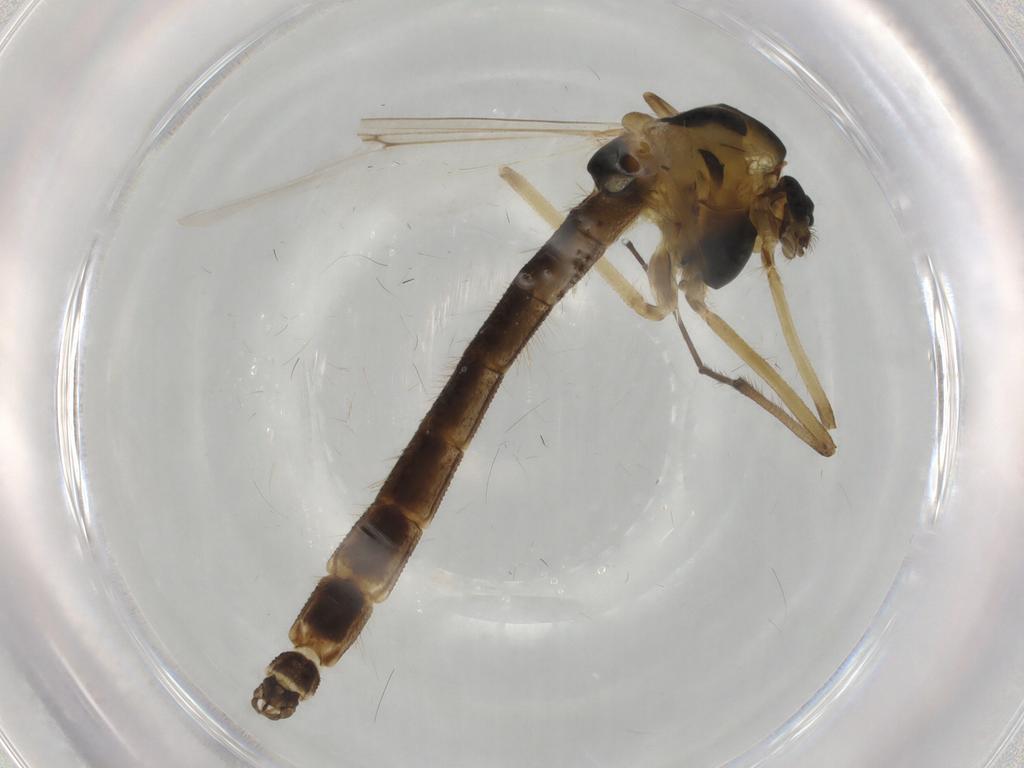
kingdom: Animalia
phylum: Arthropoda
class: Insecta
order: Diptera
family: Chironomidae
